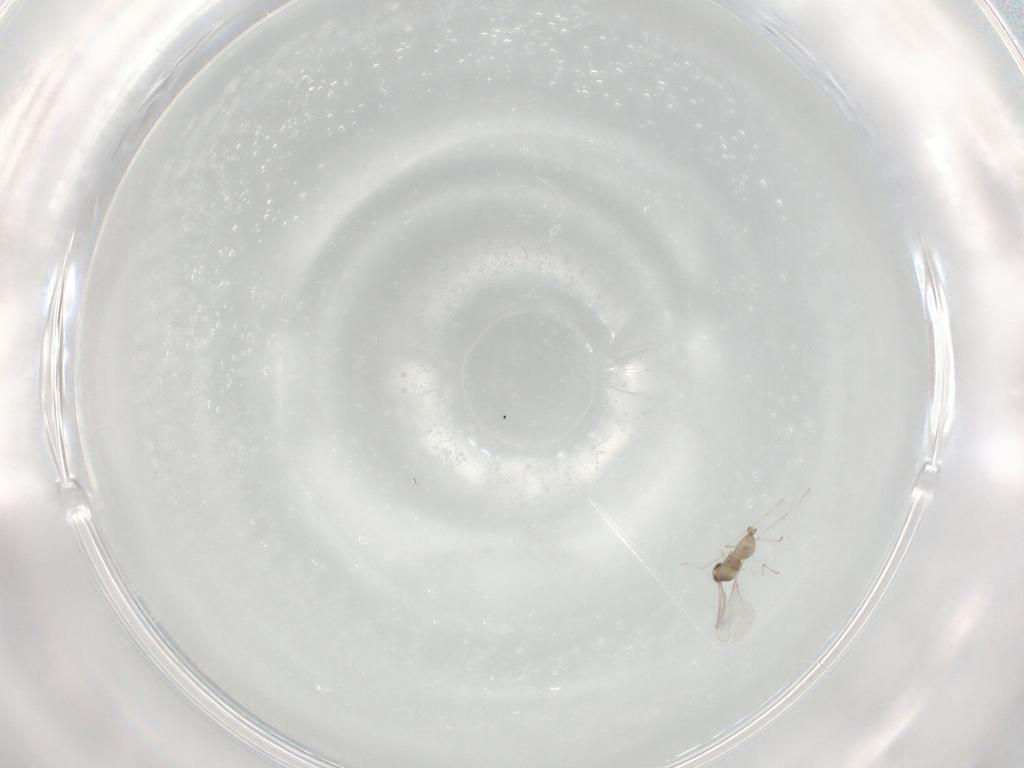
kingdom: Animalia
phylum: Arthropoda
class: Insecta
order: Diptera
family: Cecidomyiidae
